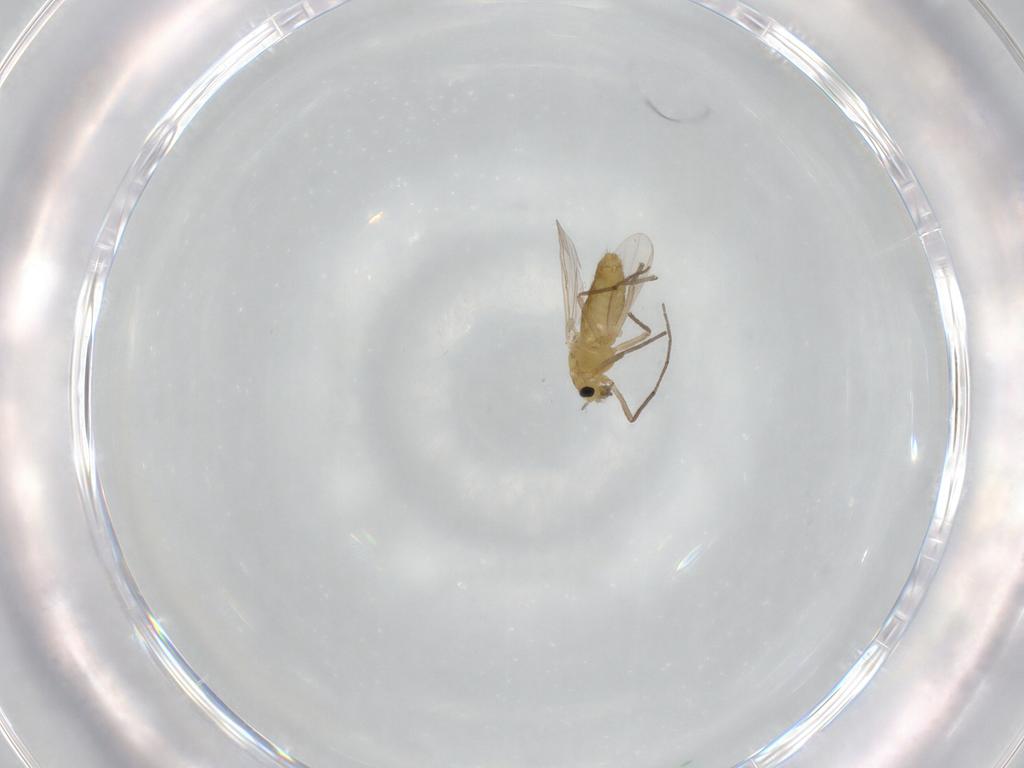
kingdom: Animalia
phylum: Arthropoda
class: Insecta
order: Diptera
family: Chironomidae
